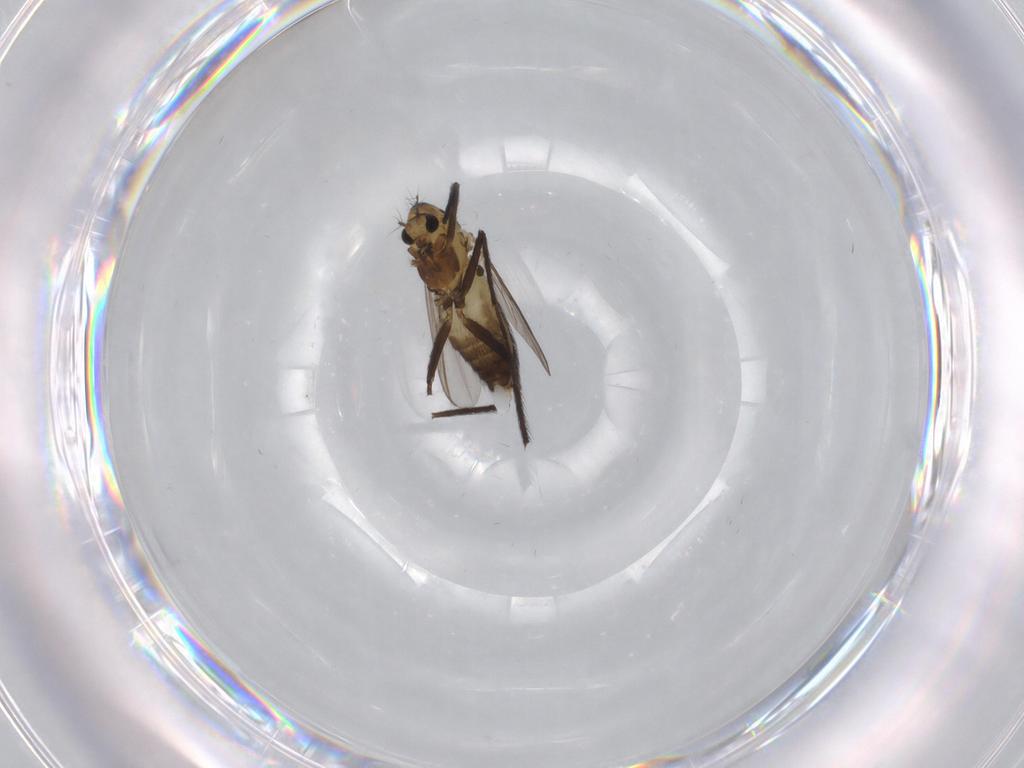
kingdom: Animalia
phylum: Arthropoda
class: Insecta
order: Diptera
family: Chironomidae
